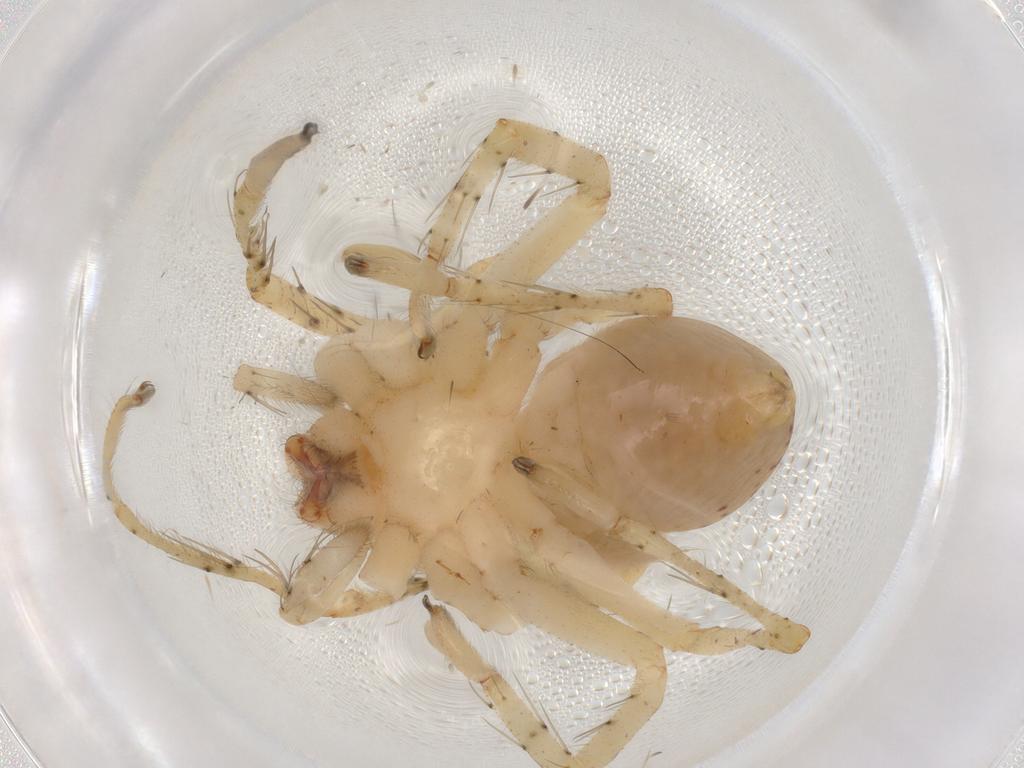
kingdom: Animalia
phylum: Arthropoda
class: Arachnida
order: Araneae
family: Sparassidae
